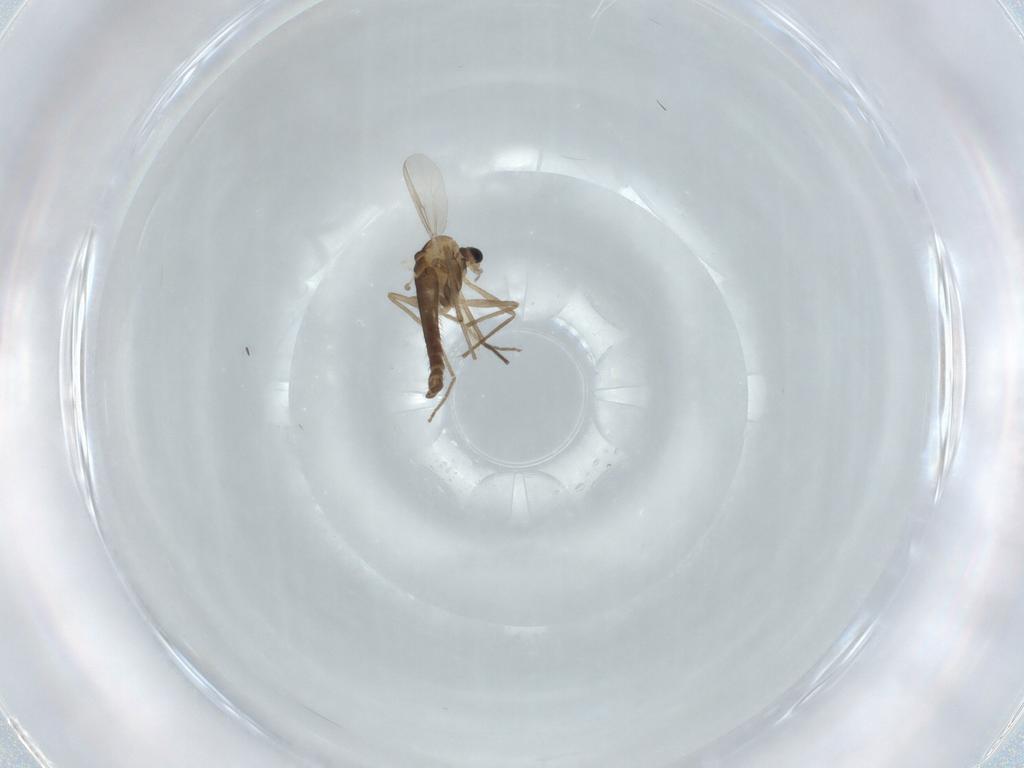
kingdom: Animalia
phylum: Arthropoda
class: Insecta
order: Diptera
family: Chironomidae
